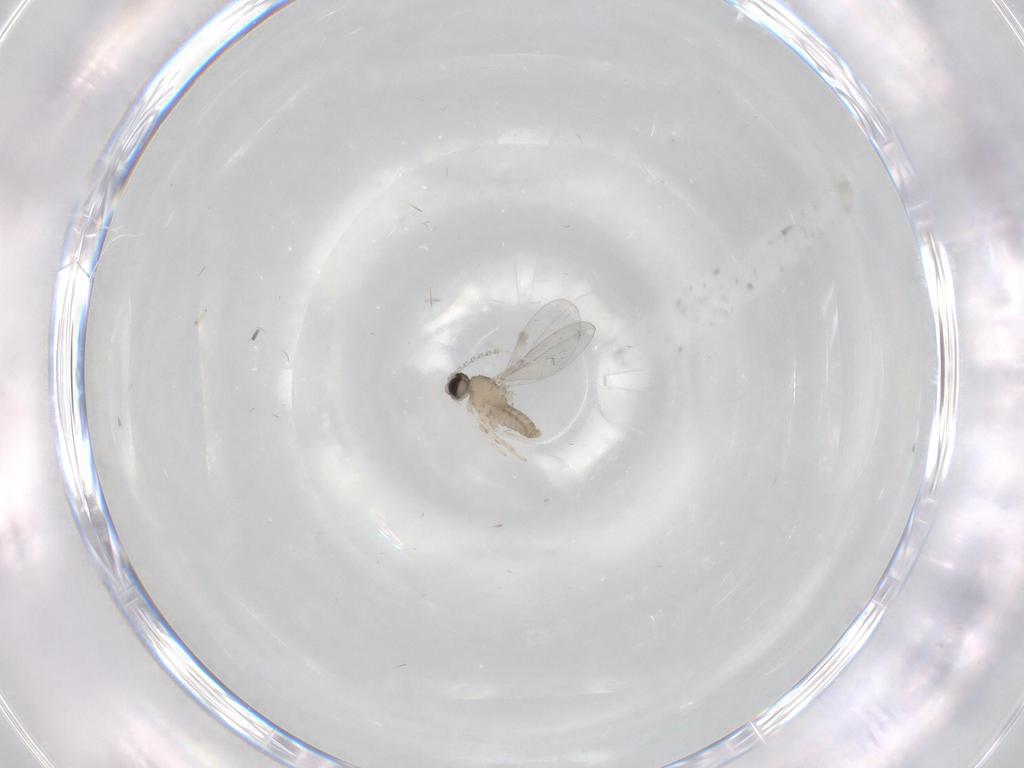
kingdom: Animalia
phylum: Arthropoda
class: Insecta
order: Diptera
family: Cecidomyiidae
